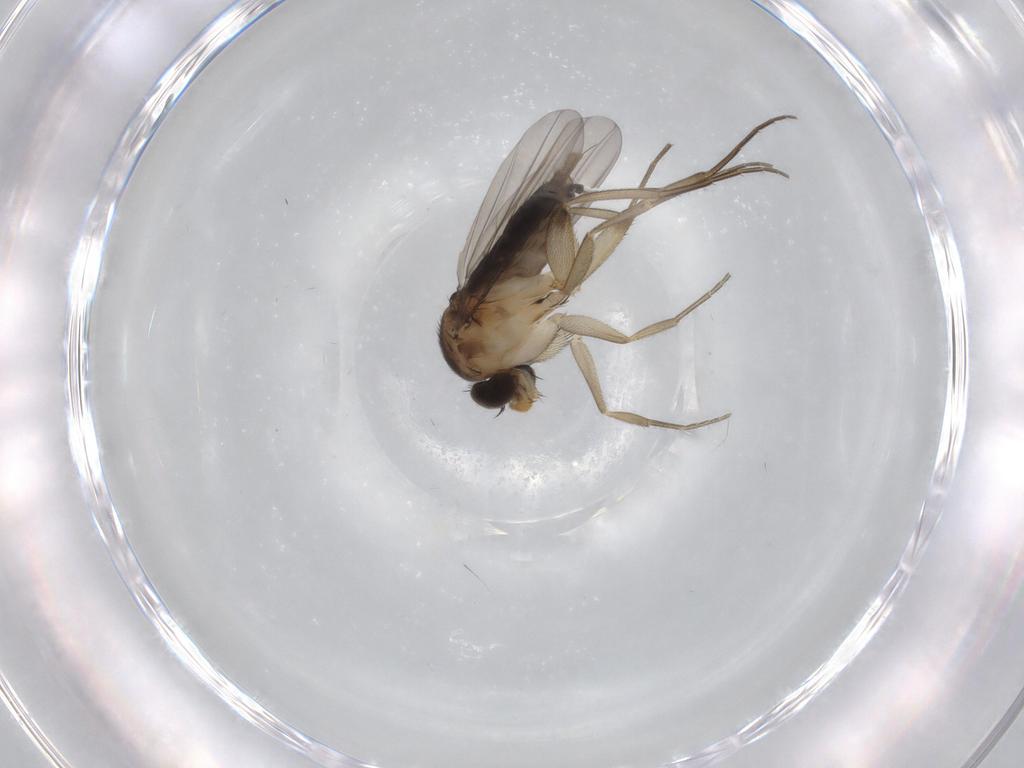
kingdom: Animalia
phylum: Arthropoda
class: Insecta
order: Diptera
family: Phoridae
